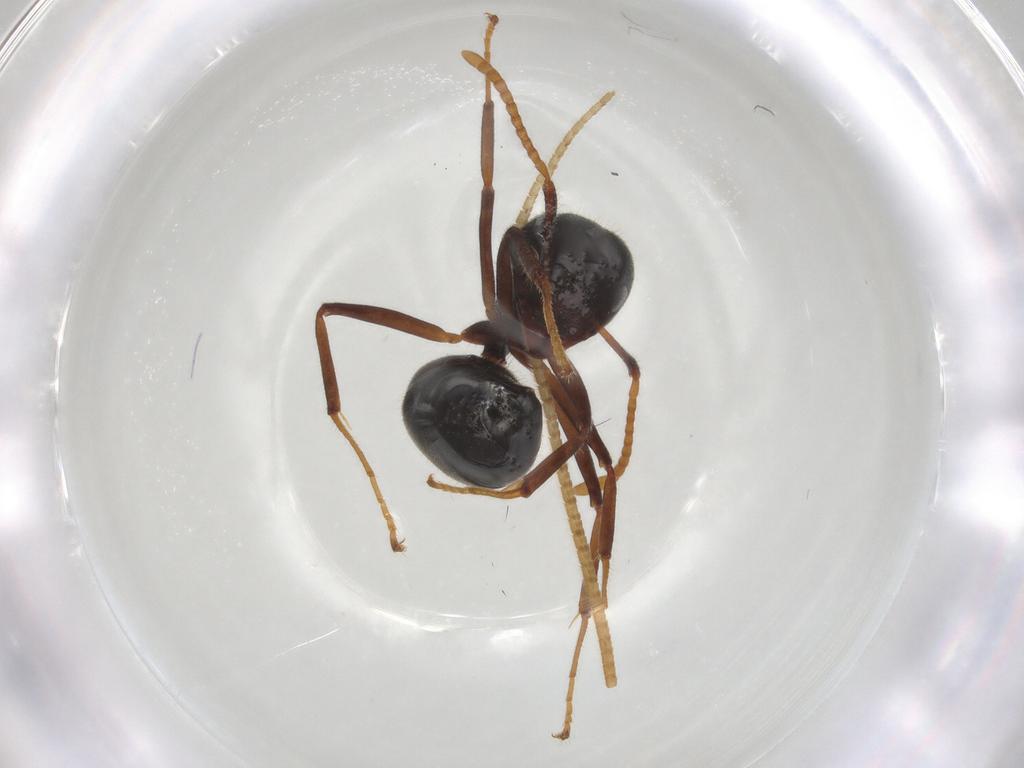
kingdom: Animalia
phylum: Arthropoda
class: Insecta
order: Hymenoptera
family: Formicidae
